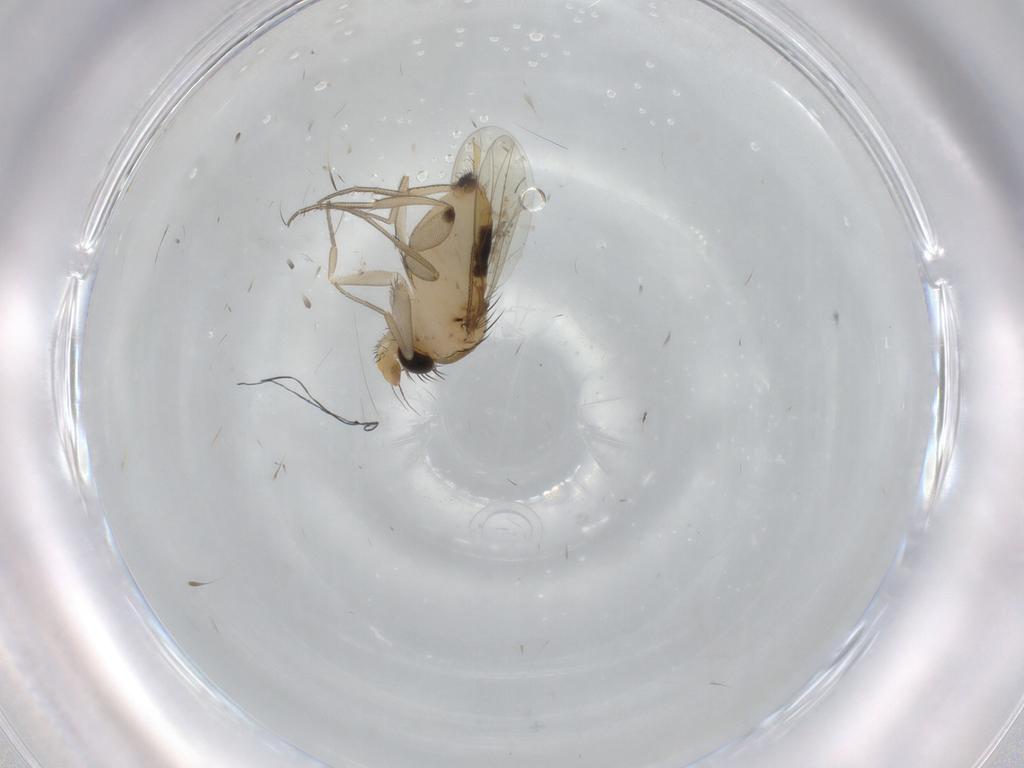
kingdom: Animalia
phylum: Arthropoda
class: Insecta
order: Diptera
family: Phoridae
